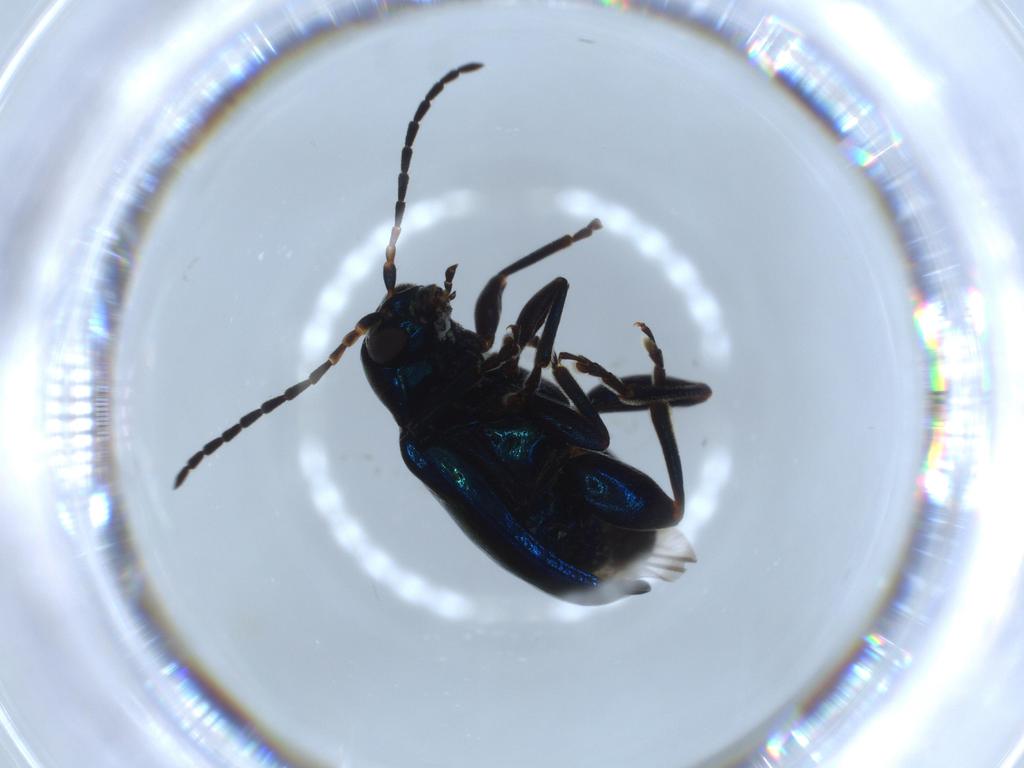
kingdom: Animalia
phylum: Arthropoda
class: Insecta
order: Coleoptera
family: Chrysomelidae
